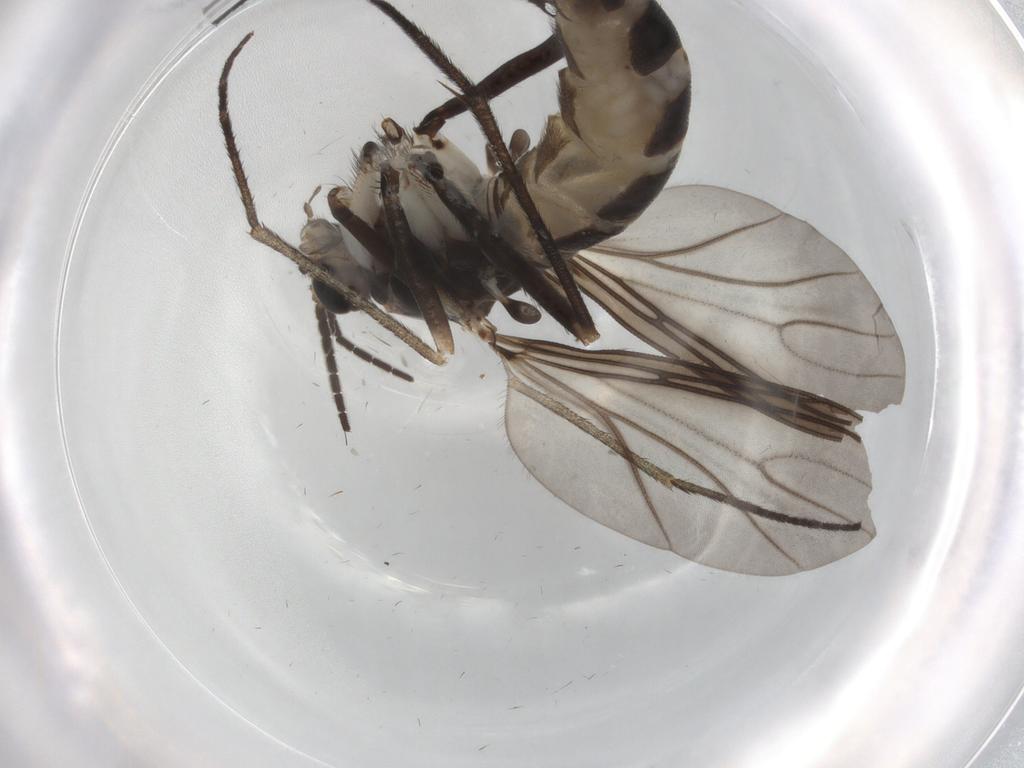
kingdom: Animalia
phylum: Arthropoda
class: Insecta
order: Diptera
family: Sciaridae
